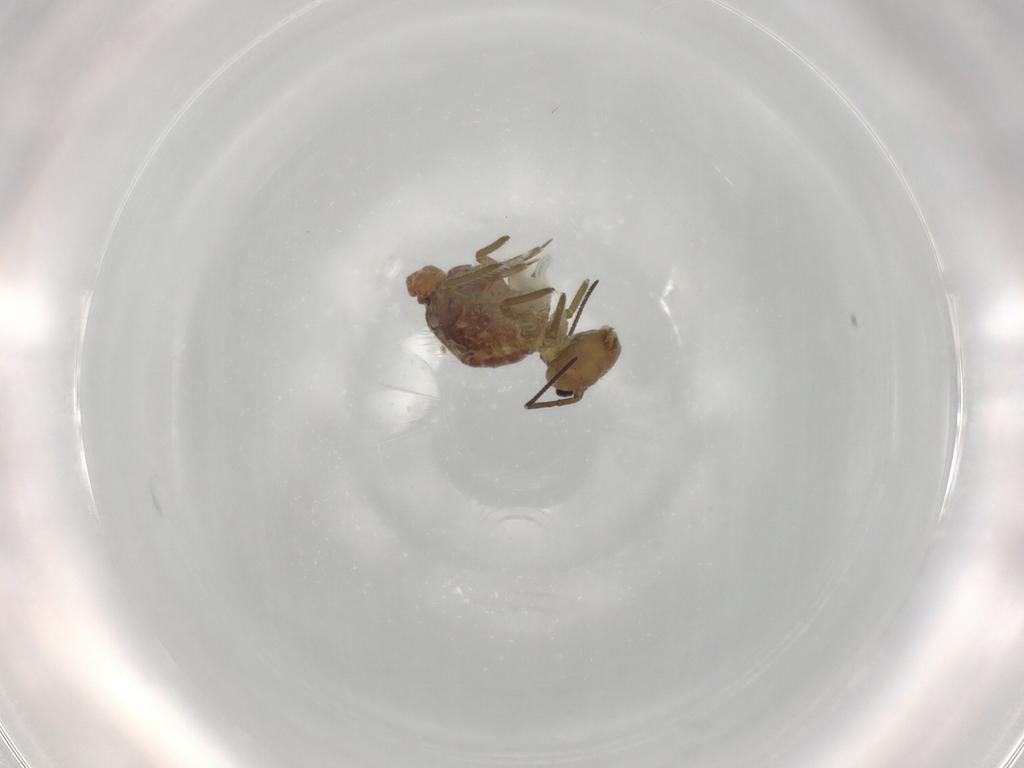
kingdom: Animalia
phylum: Arthropoda
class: Collembola
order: Symphypleona
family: Sminthuridae
